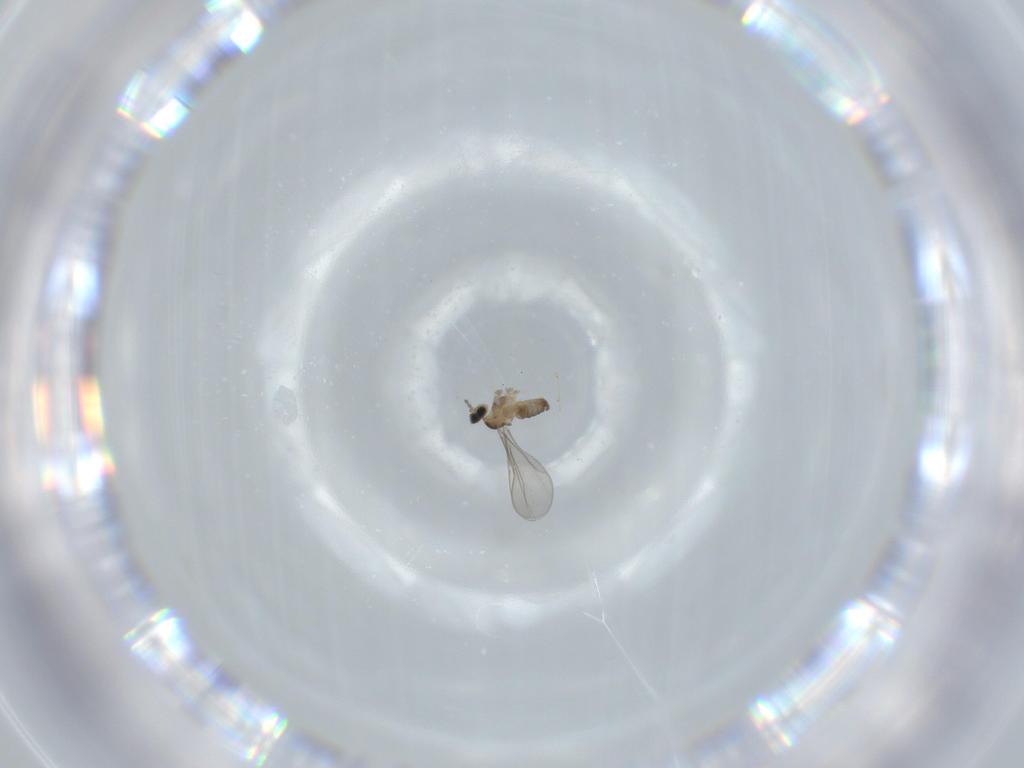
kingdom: Animalia
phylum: Arthropoda
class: Insecta
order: Diptera
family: Cecidomyiidae
